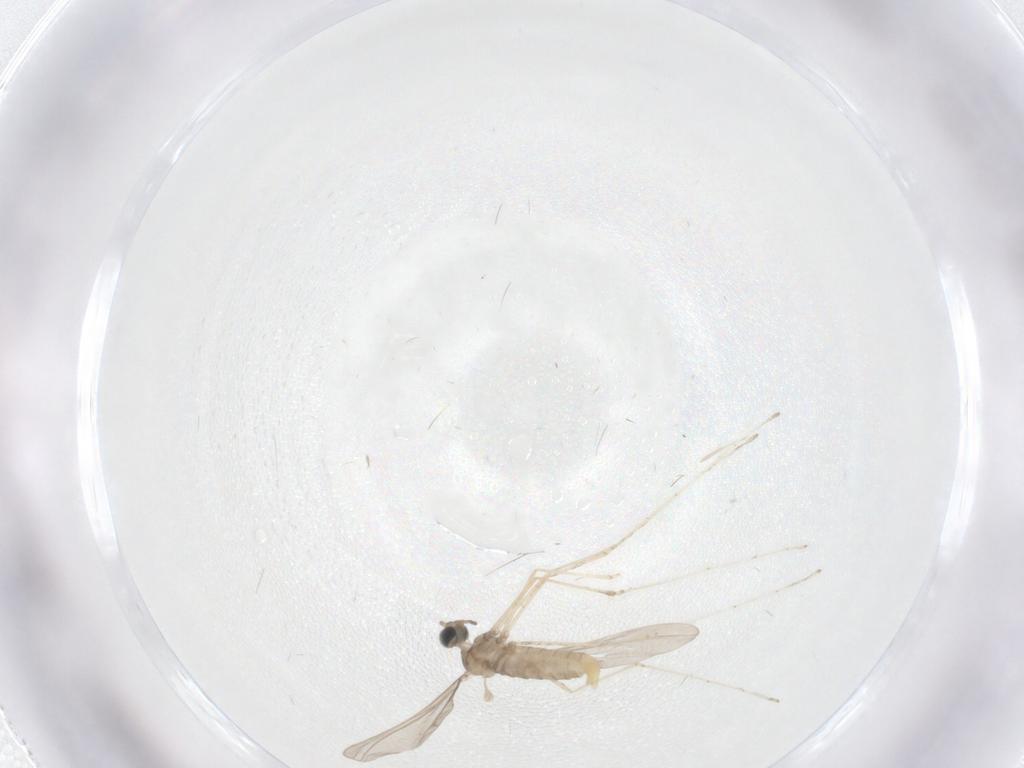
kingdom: Animalia
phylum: Arthropoda
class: Insecta
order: Diptera
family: Cecidomyiidae
